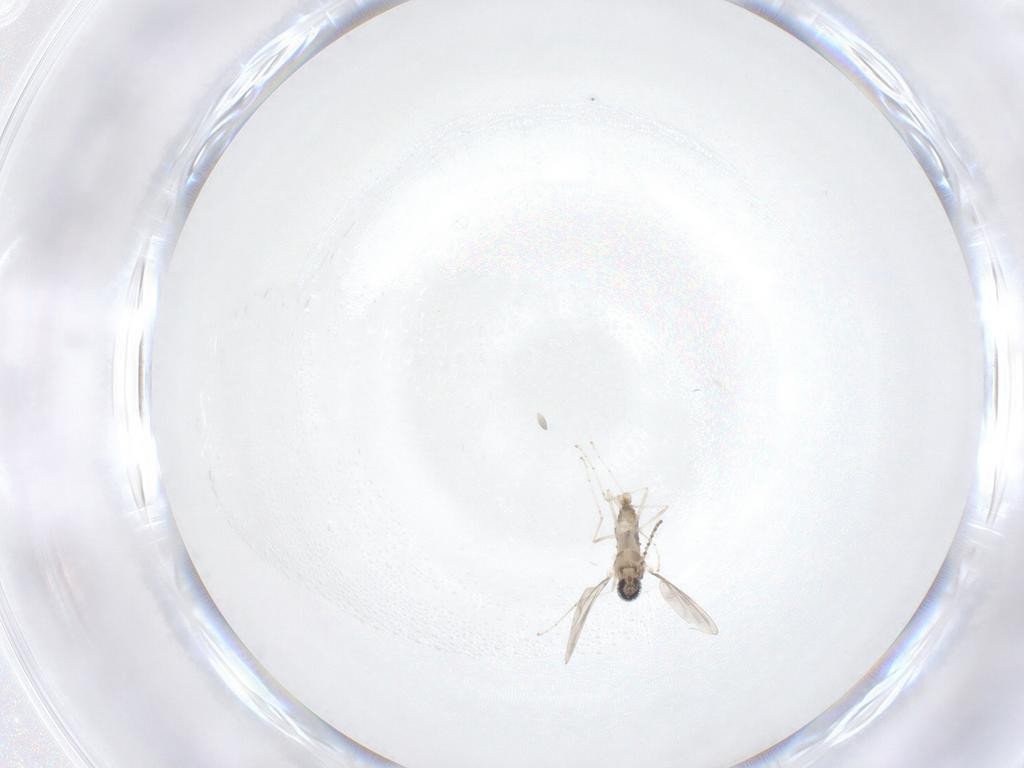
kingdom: Animalia
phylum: Arthropoda
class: Insecta
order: Diptera
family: Cecidomyiidae
